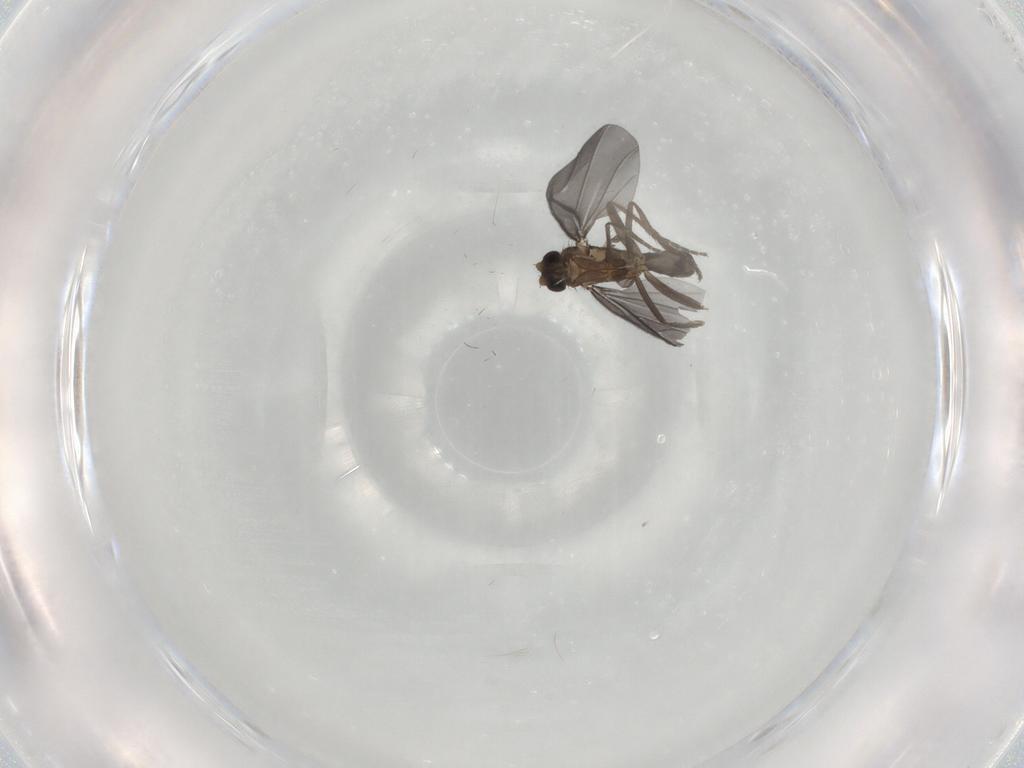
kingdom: Animalia
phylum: Arthropoda
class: Insecta
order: Diptera
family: Phoridae
